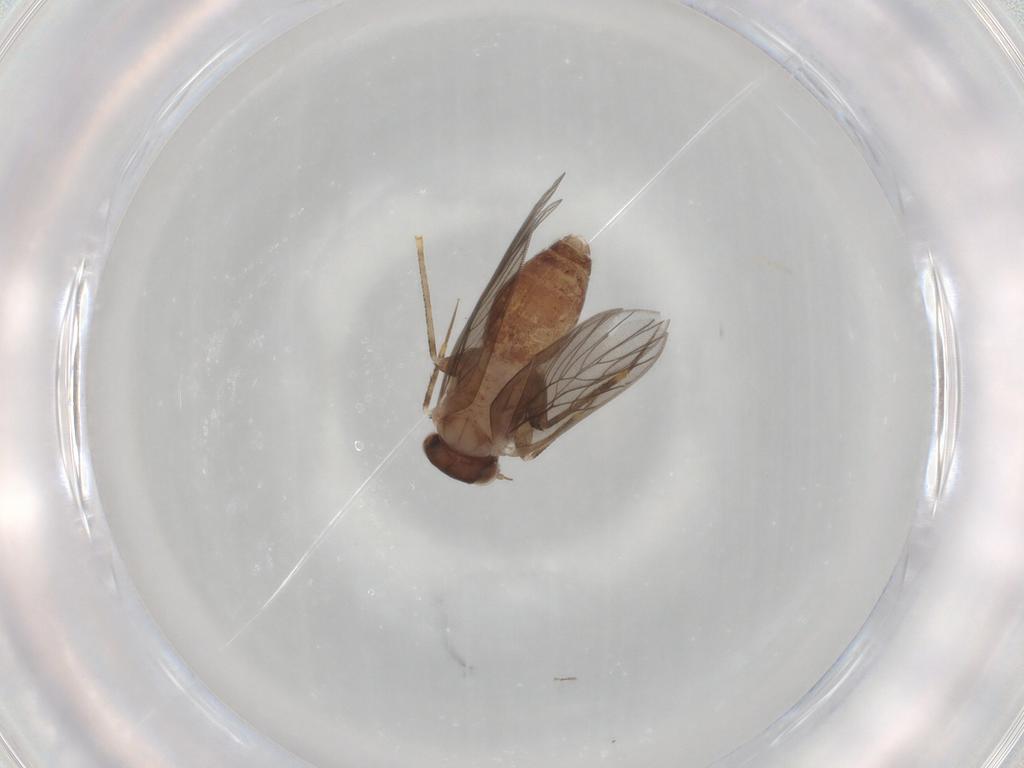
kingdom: Animalia
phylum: Arthropoda
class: Insecta
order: Psocodea
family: Lepidopsocidae
